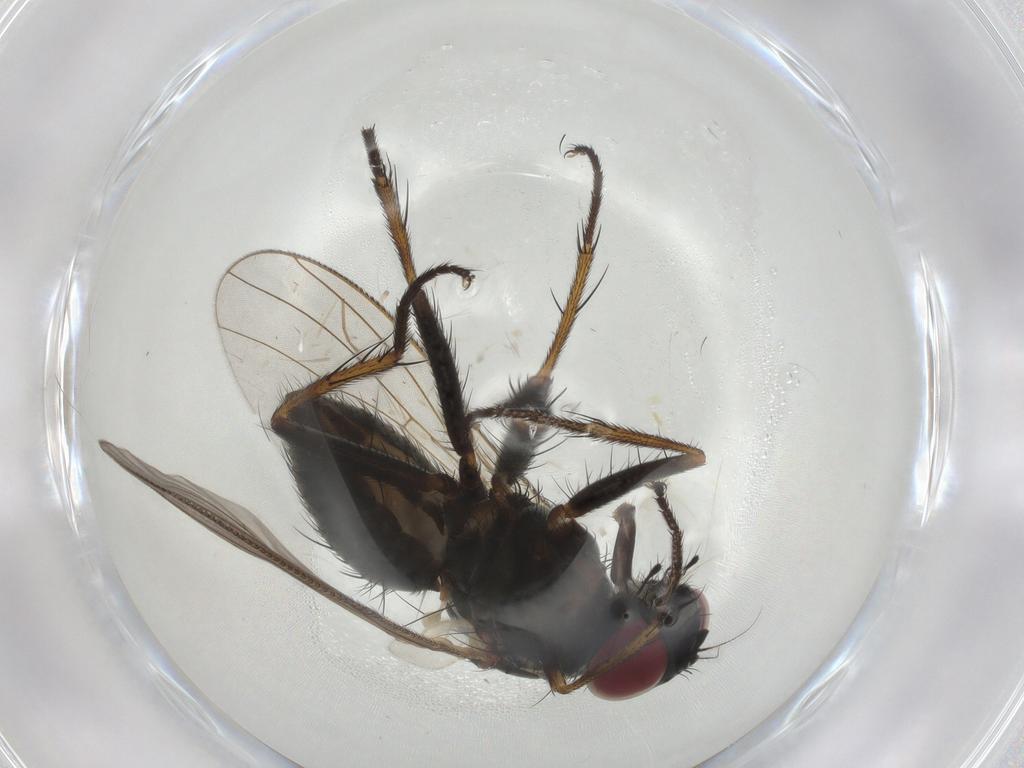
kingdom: Animalia
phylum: Arthropoda
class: Insecta
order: Diptera
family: Muscidae
